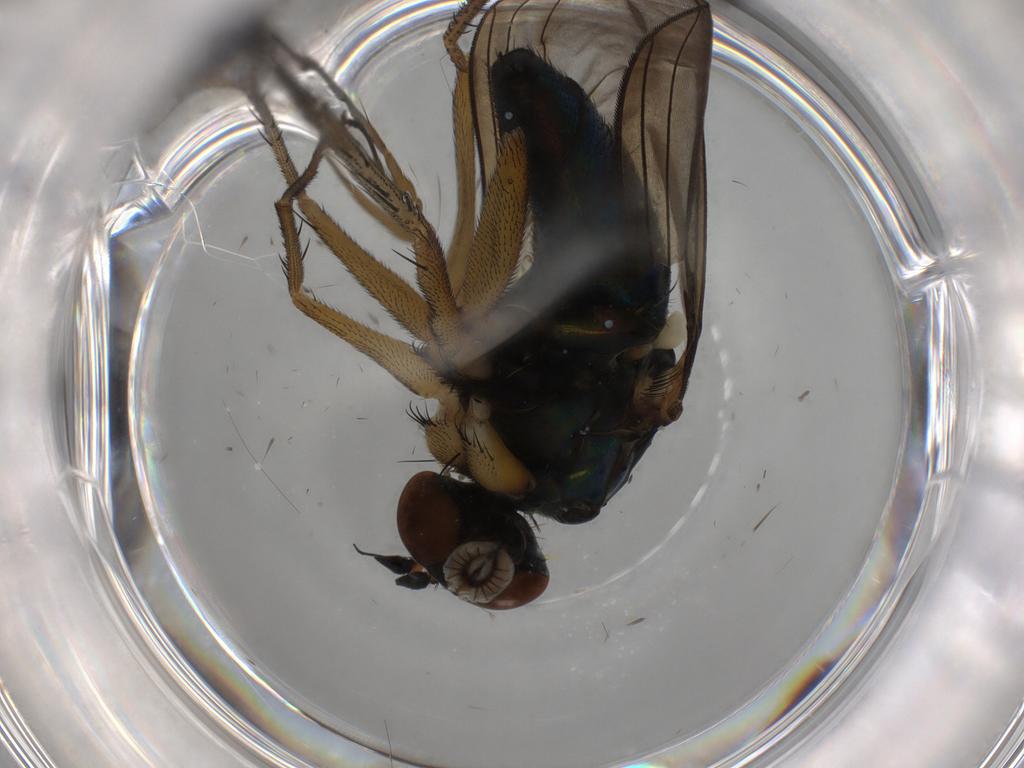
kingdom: Animalia
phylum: Arthropoda
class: Insecta
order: Diptera
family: Dolichopodidae
